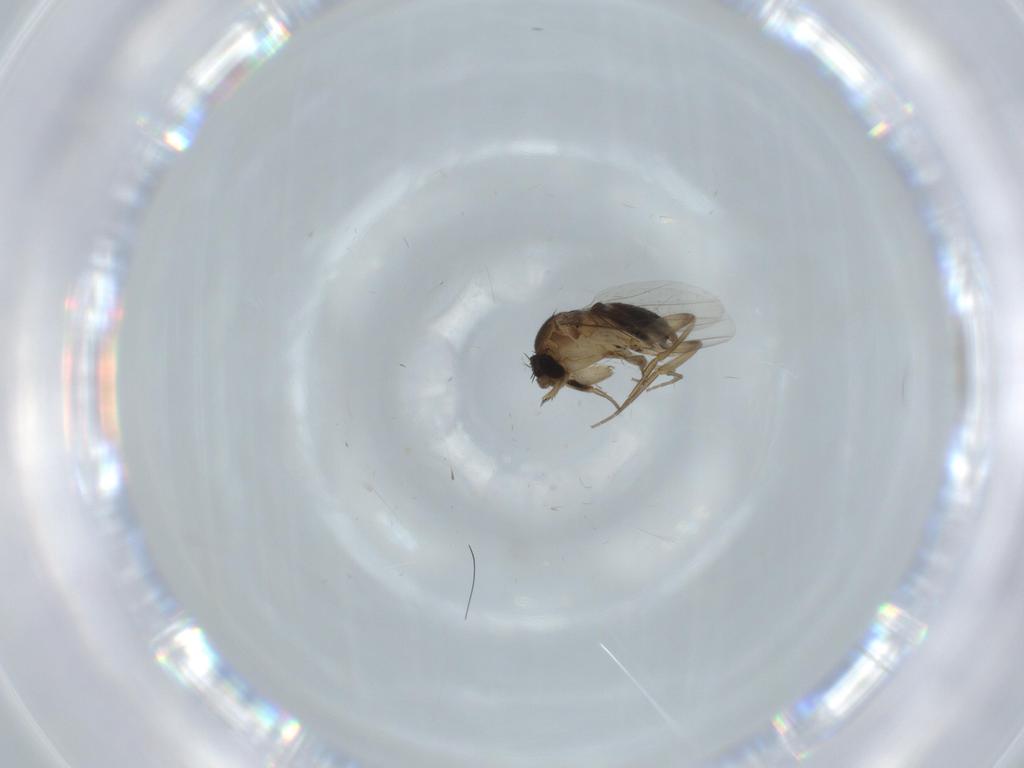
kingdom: Animalia
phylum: Arthropoda
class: Insecta
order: Diptera
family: Phoridae
